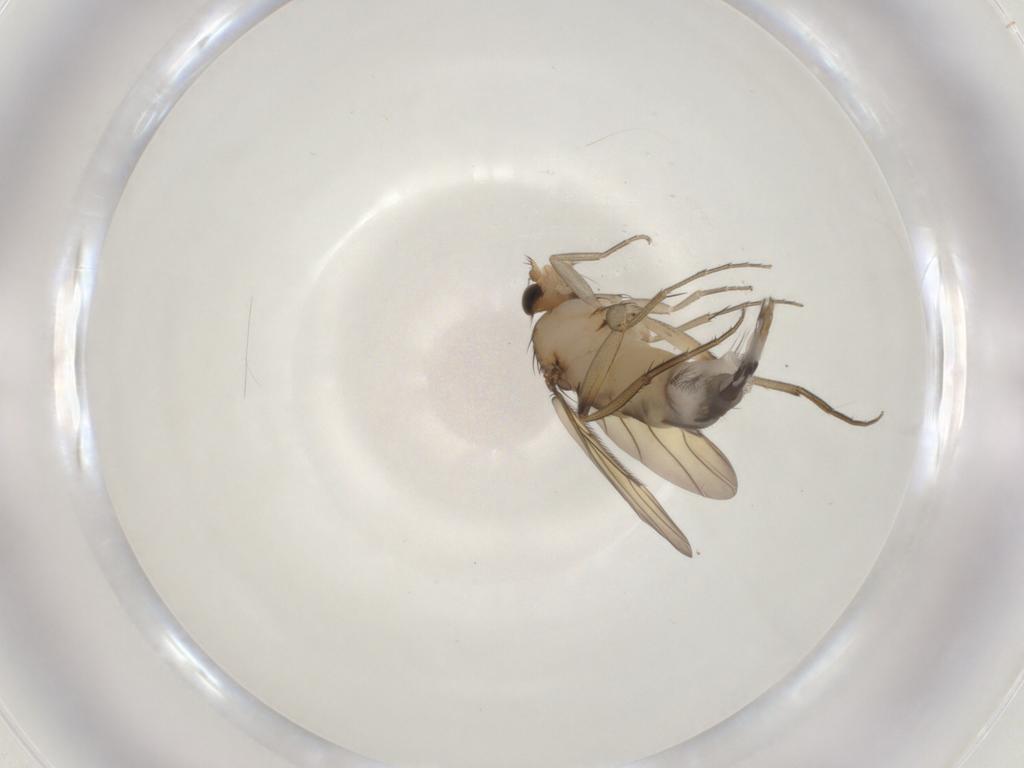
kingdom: Animalia
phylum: Arthropoda
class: Insecta
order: Diptera
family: Phoridae
